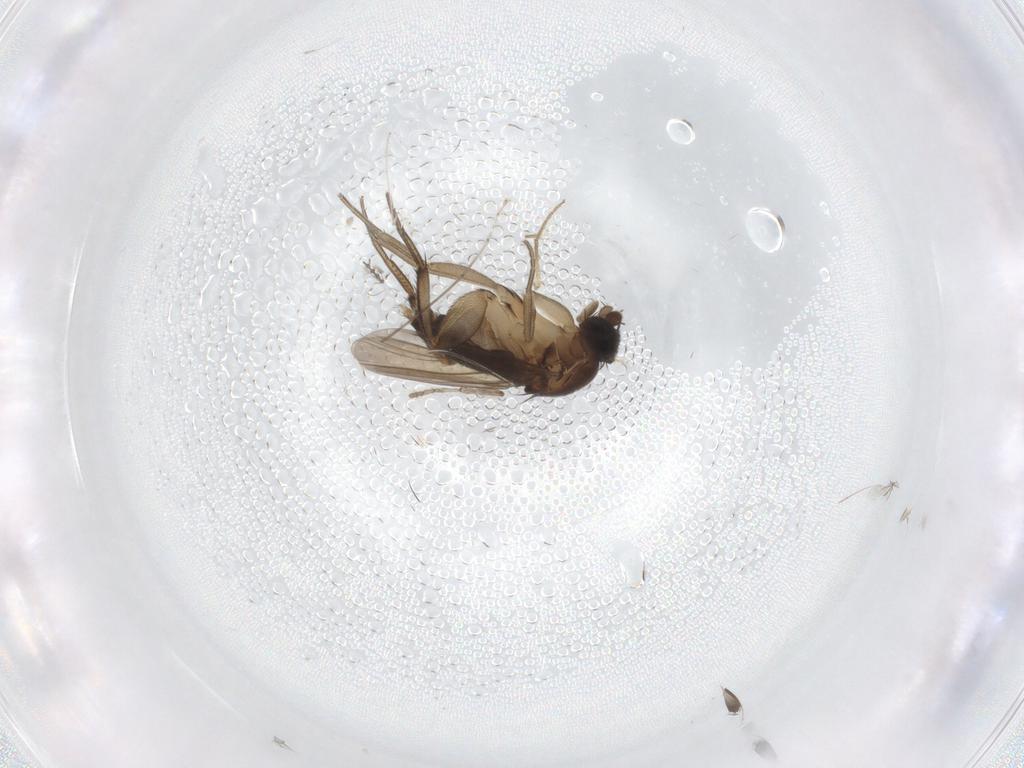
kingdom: Animalia
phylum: Arthropoda
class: Insecta
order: Diptera
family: Phoridae
